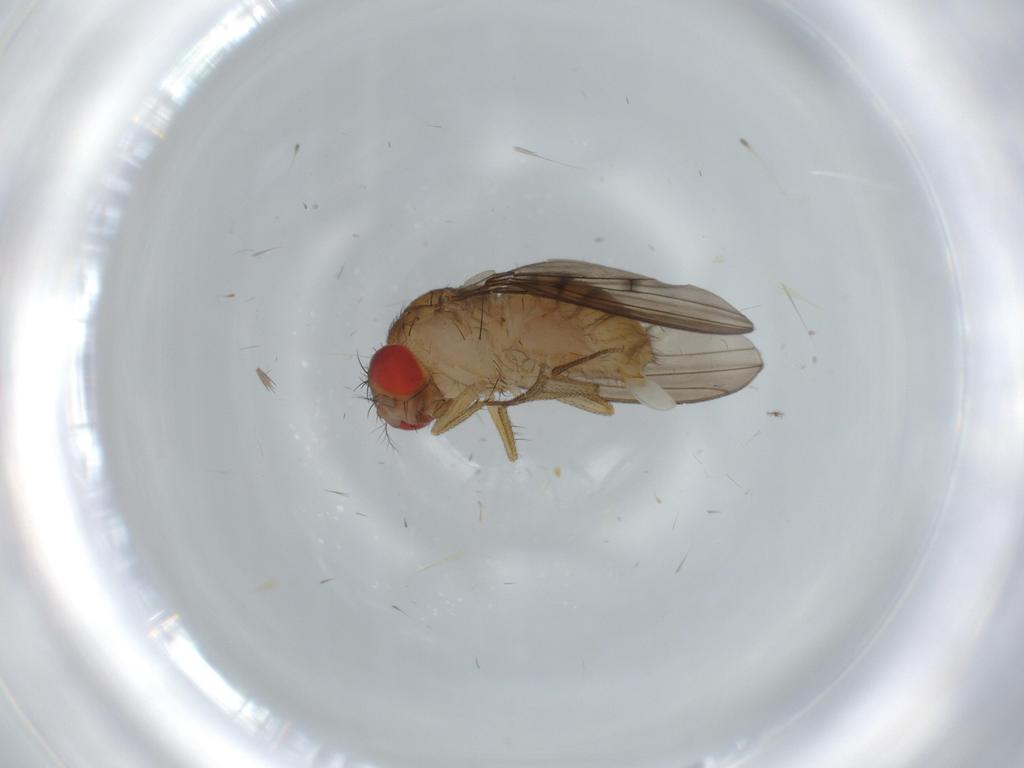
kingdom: Animalia
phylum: Arthropoda
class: Insecta
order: Diptera
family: Drosophilidae
